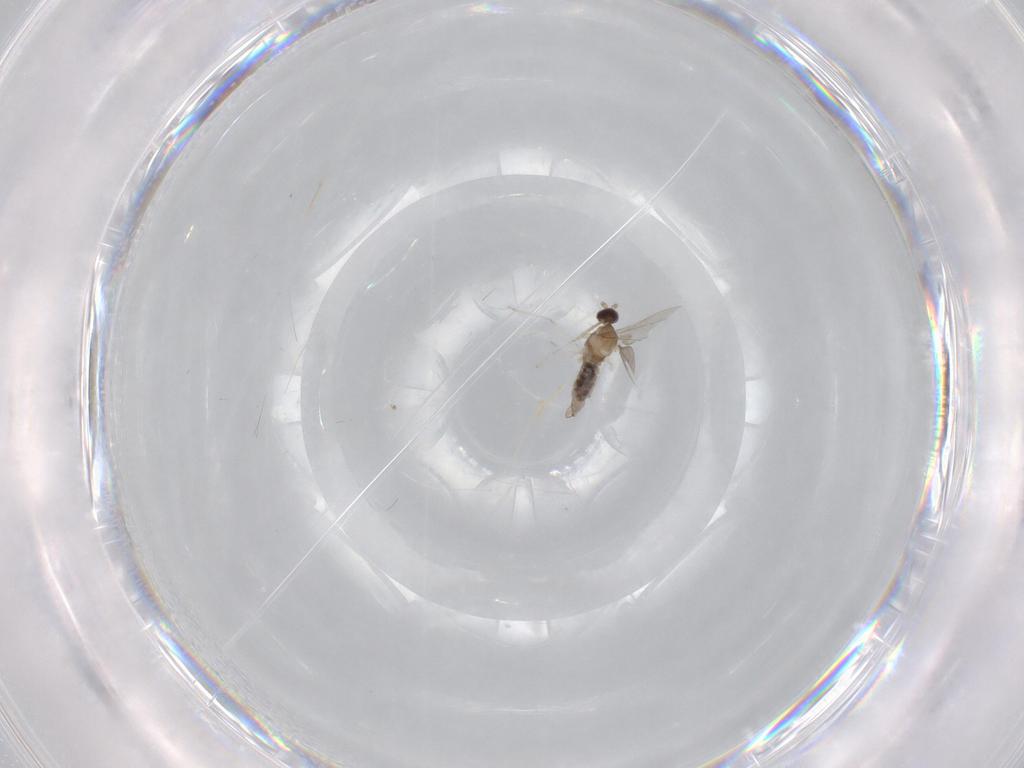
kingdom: Animalia
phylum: Arthropoda
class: Insecta
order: Diptera
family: Cecidomyiidae
